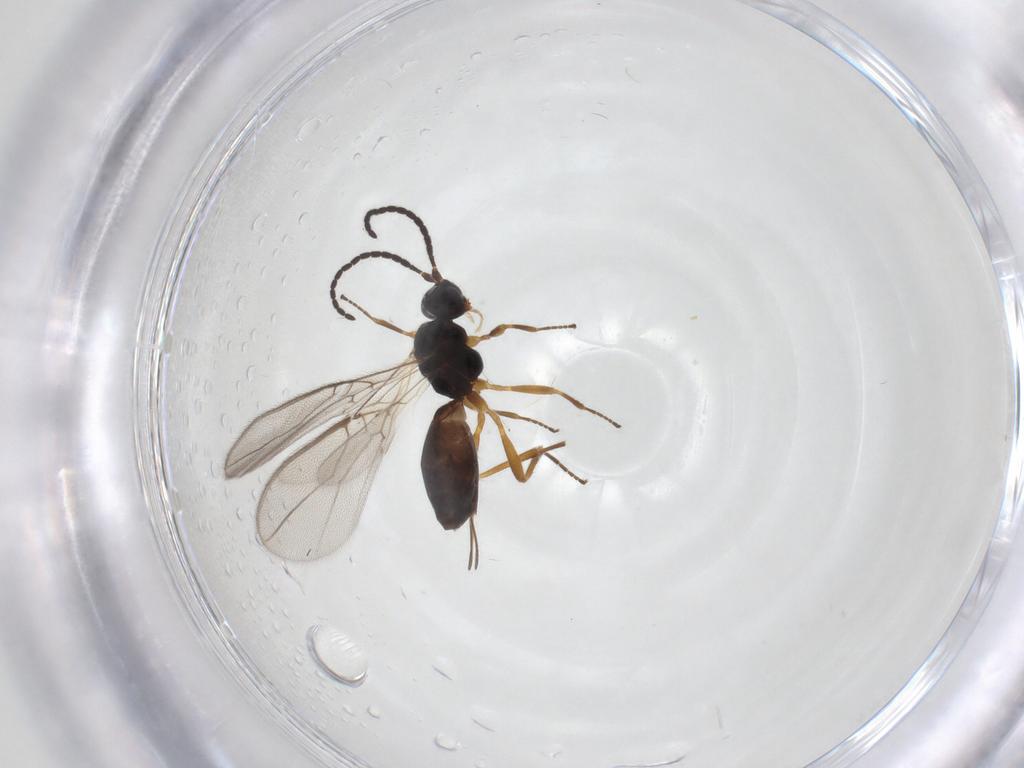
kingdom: Animalia
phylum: Arthropoda
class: Insecta
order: Hymenoptera
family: Braconidae
